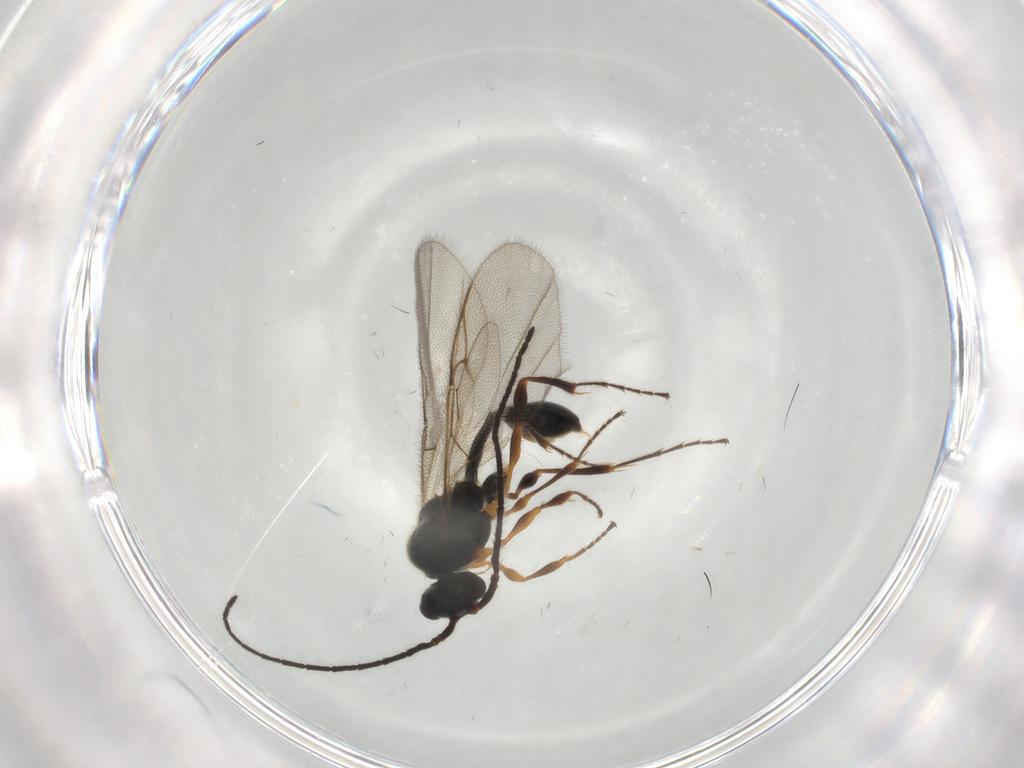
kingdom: Animalia
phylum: Arthropoda
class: Insecta
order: Hymenoptera
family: Diapriidae
